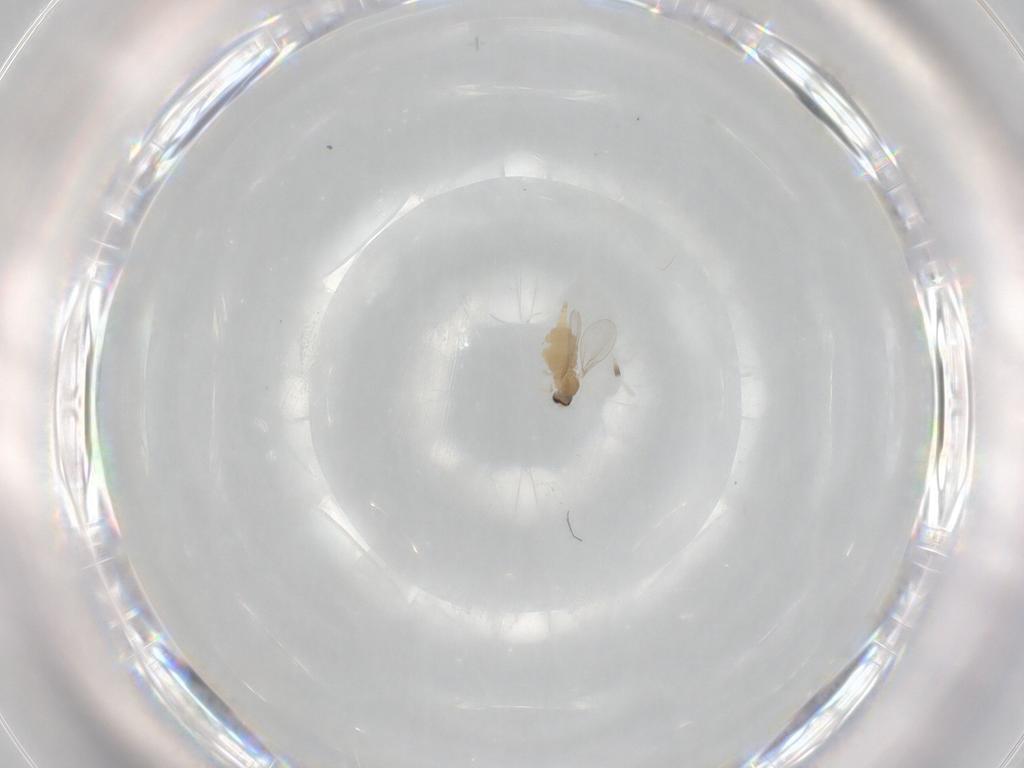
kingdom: Animalia
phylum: Arthropoda
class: Insecta
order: Diptera
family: Cecidomyiidae
